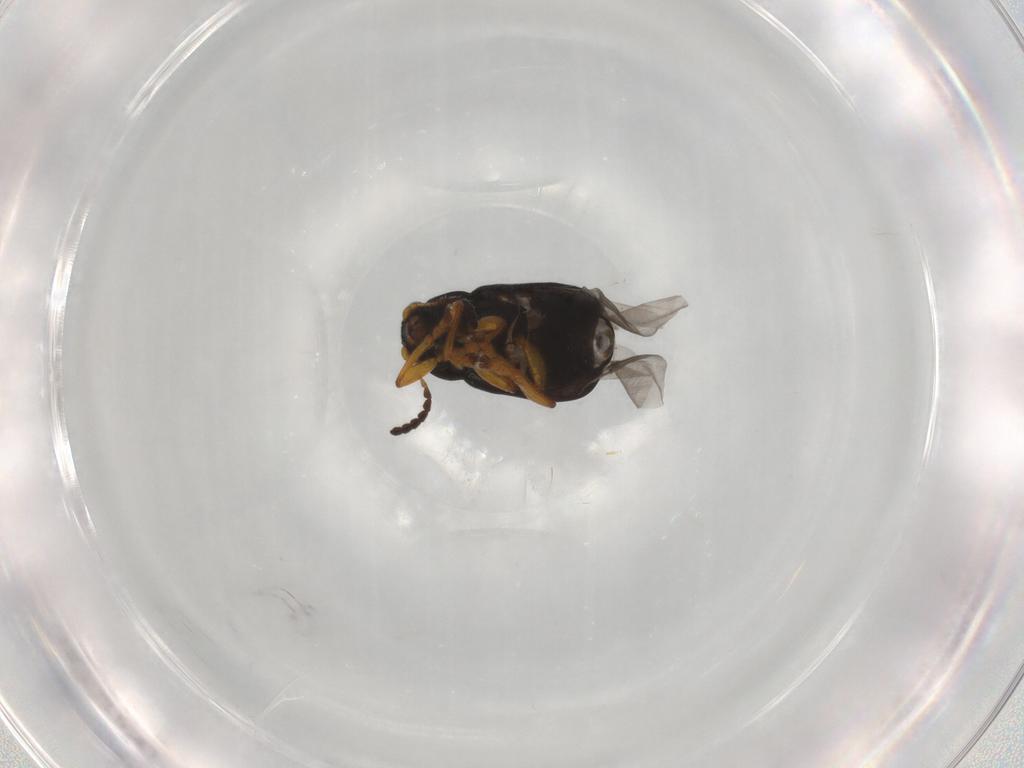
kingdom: Animalia
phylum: Arthropoda
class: Insecta
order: Coleoptera
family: Chrysomelidae
